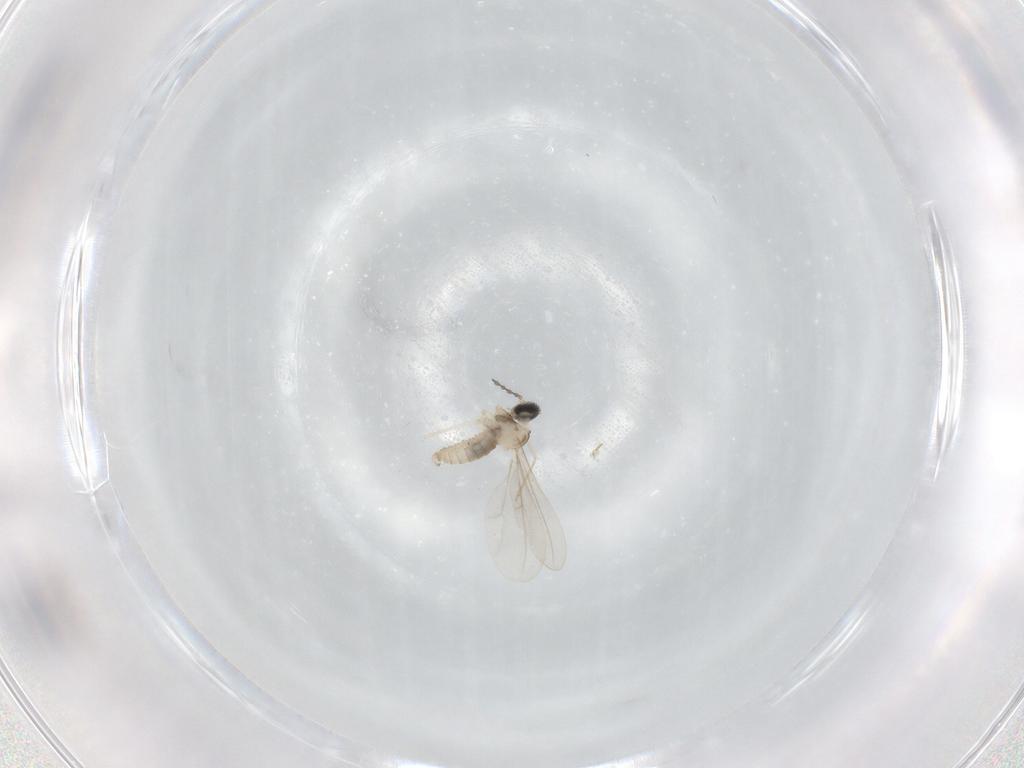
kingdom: Animalia
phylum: Arthropoda
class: Insecta
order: Diptera
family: Cecidomyiidae
